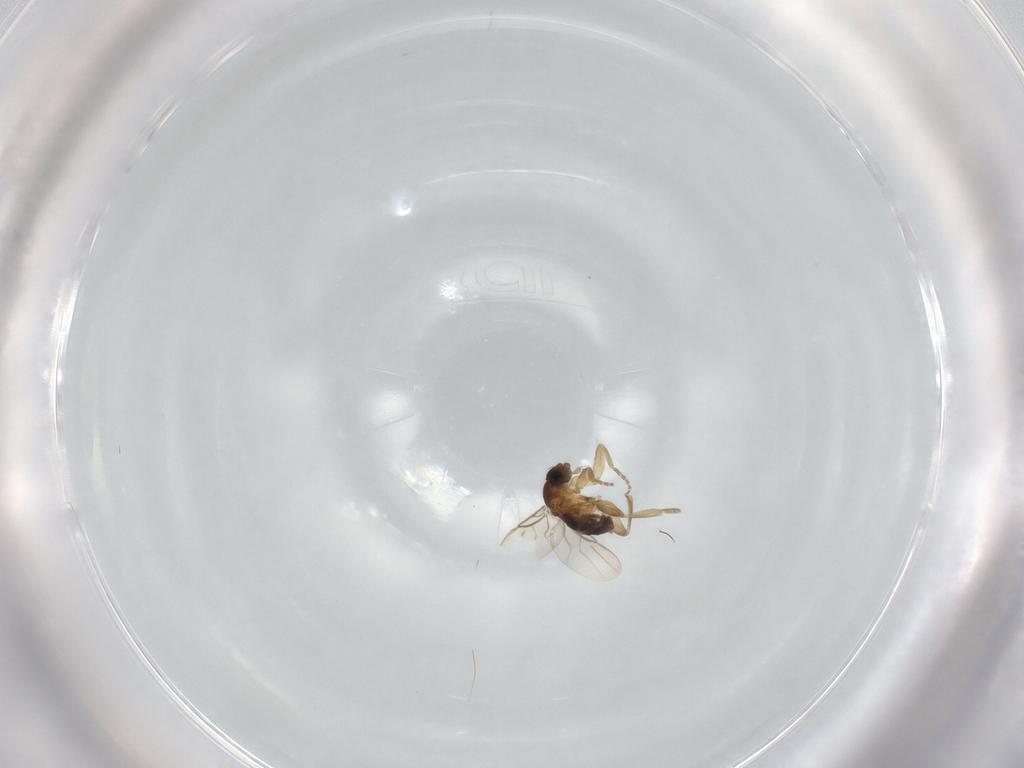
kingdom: Animalia
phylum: Arthropoda
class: Insecta
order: Diptera
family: Phoridae
